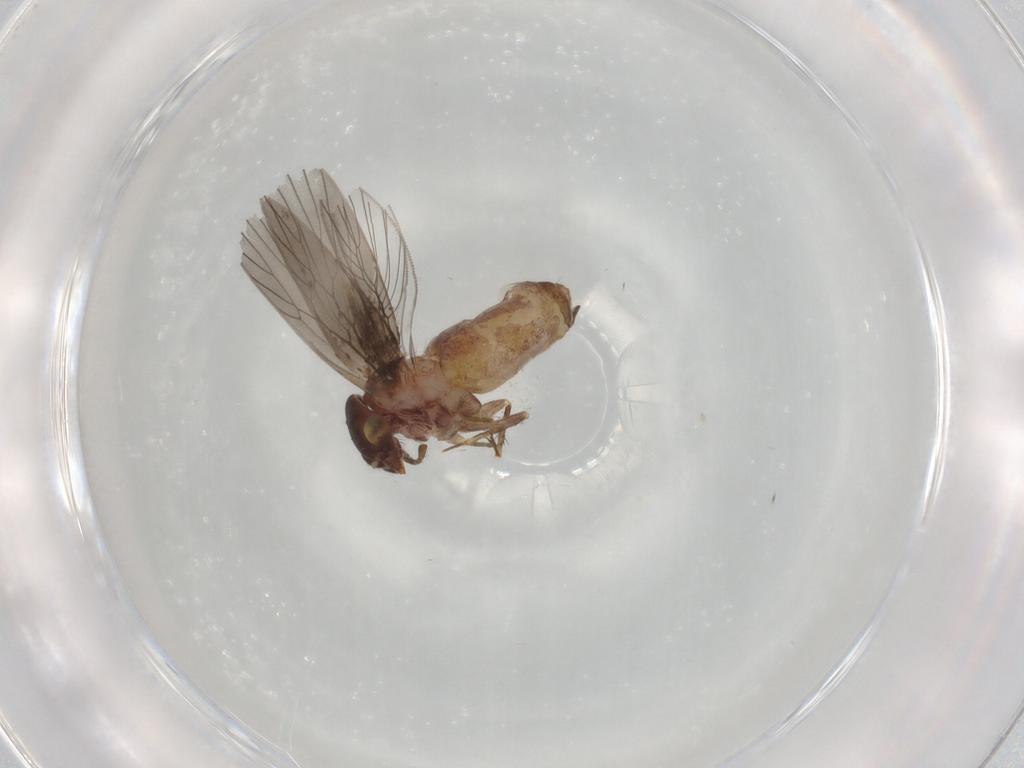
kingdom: Animalia
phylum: Arthropoda
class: Insecta
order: Psocodea
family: Lepidopsocidae
